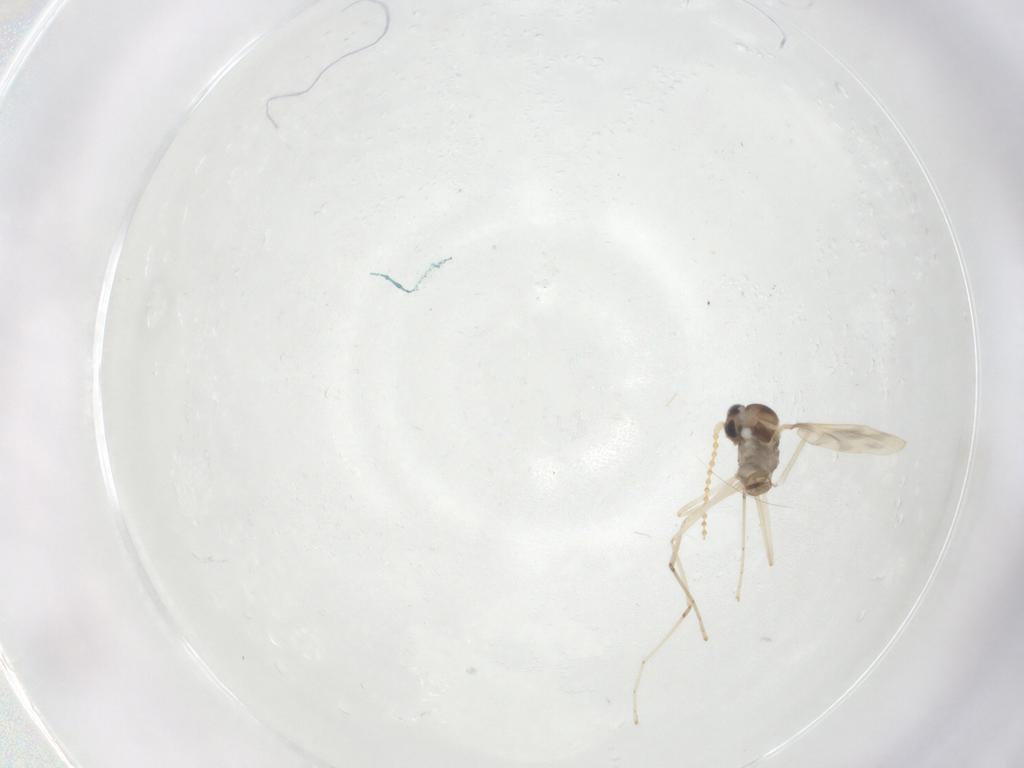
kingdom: Animalia
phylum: Arthropoda
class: Insecta
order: Diptera
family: Cecidomyiidae
